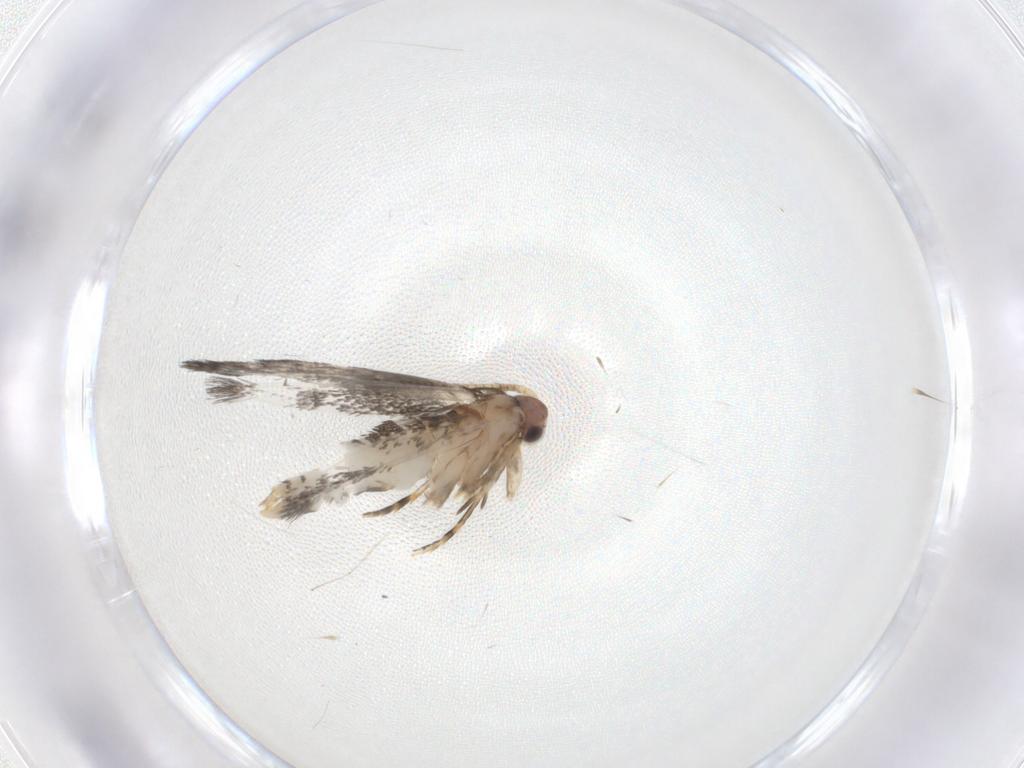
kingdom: Animalia
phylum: Arthropoda
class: Insecta
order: Lepidoptera
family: Tineidae
